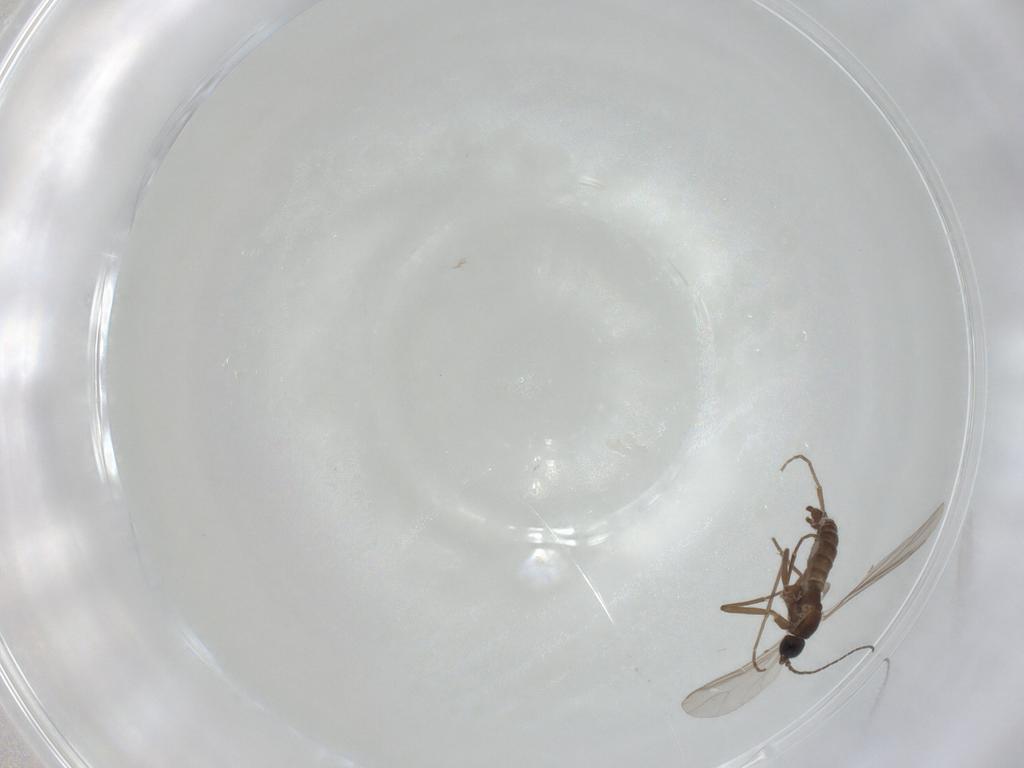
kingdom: Animalia
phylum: Arthropoda
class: Insecta
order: Diptera
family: Sciaridae
